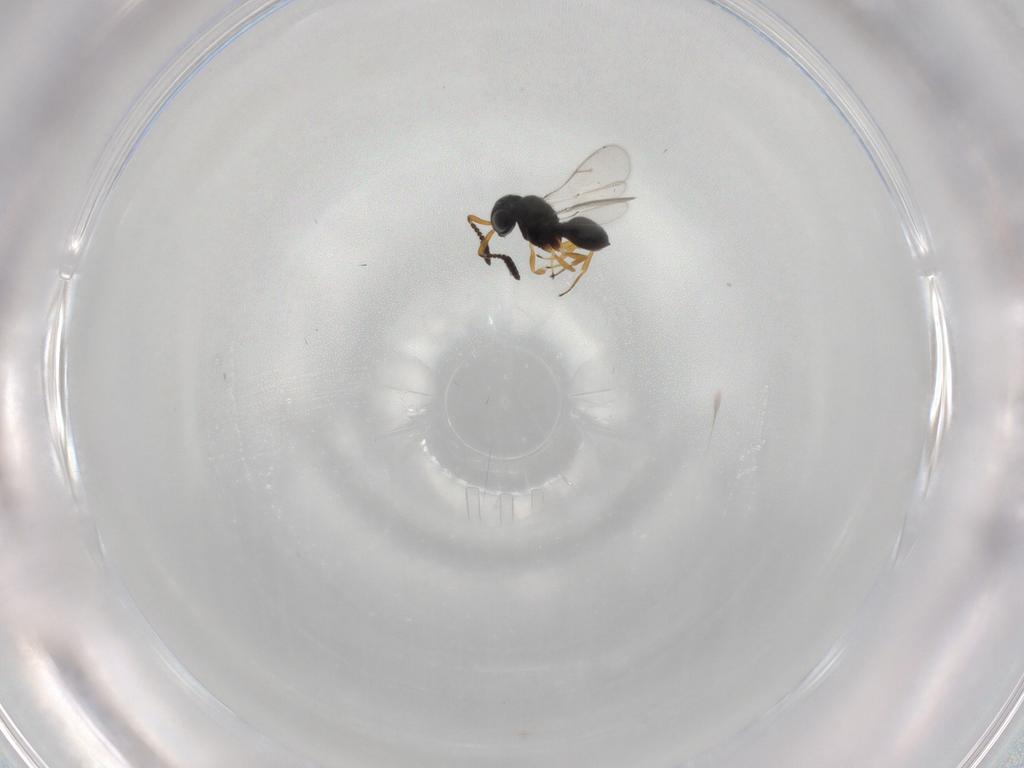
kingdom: Animalia
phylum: Arthropoda
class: Insecta
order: Hymenoptera
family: Scelionidae
